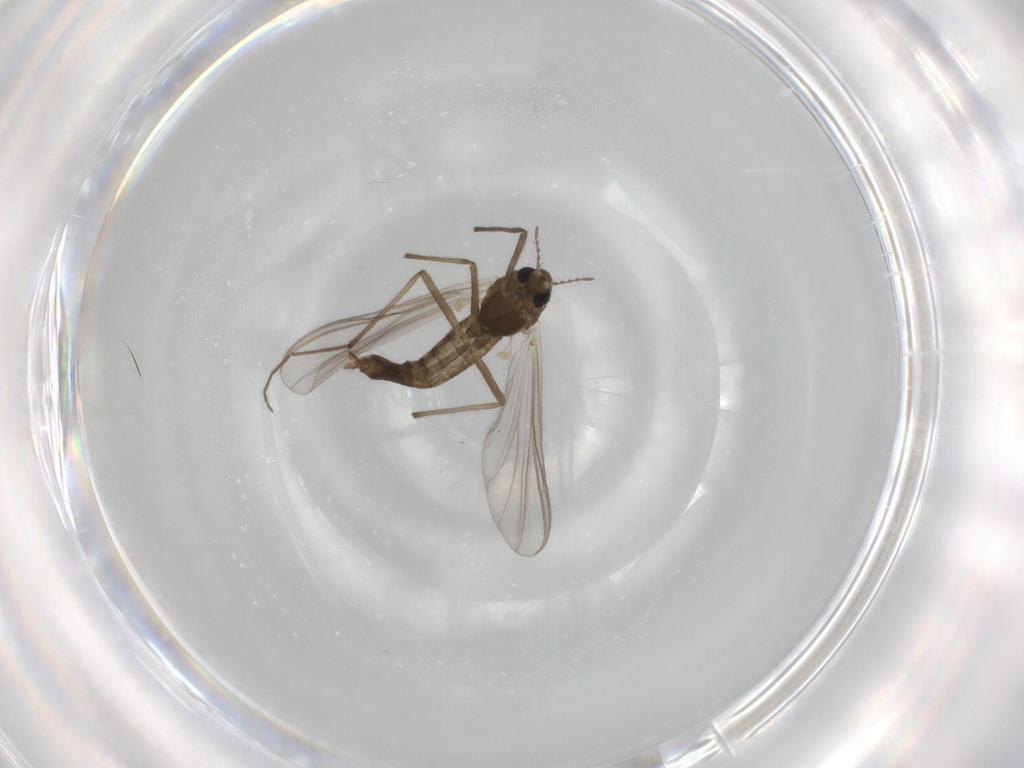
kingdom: Animalia
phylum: Arthropoda
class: Insecta
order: Diptera
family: Chironomidae
